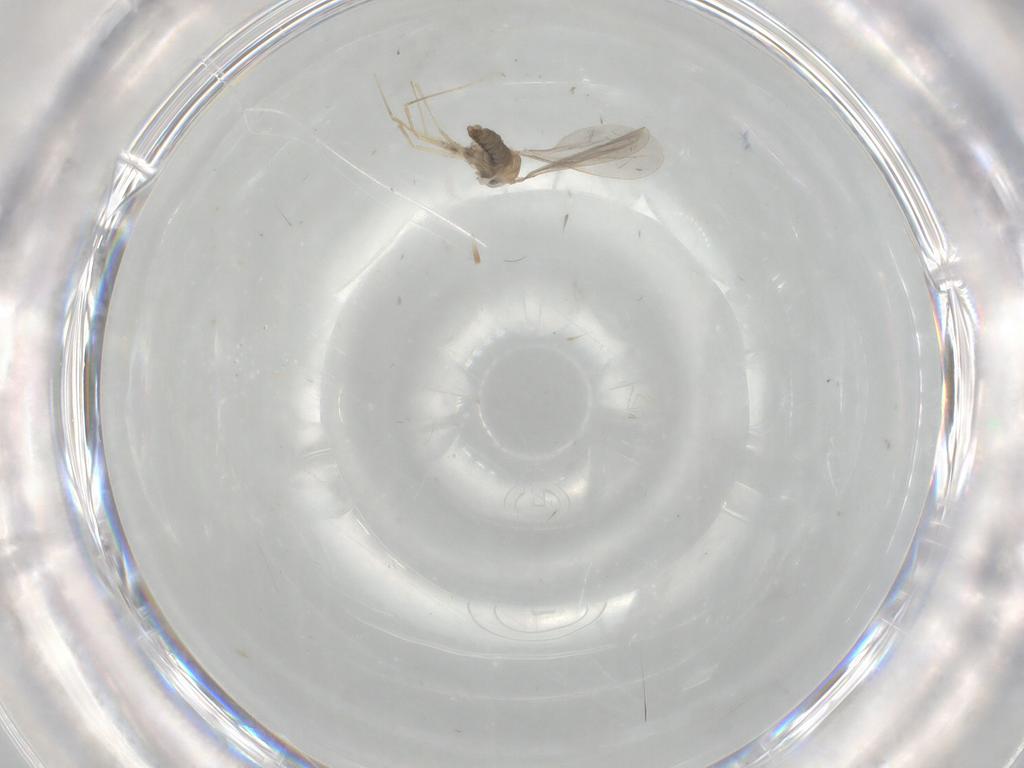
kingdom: Animalia
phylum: Arthropoda
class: Insecta
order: Diptera
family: Cecidomyiidae
